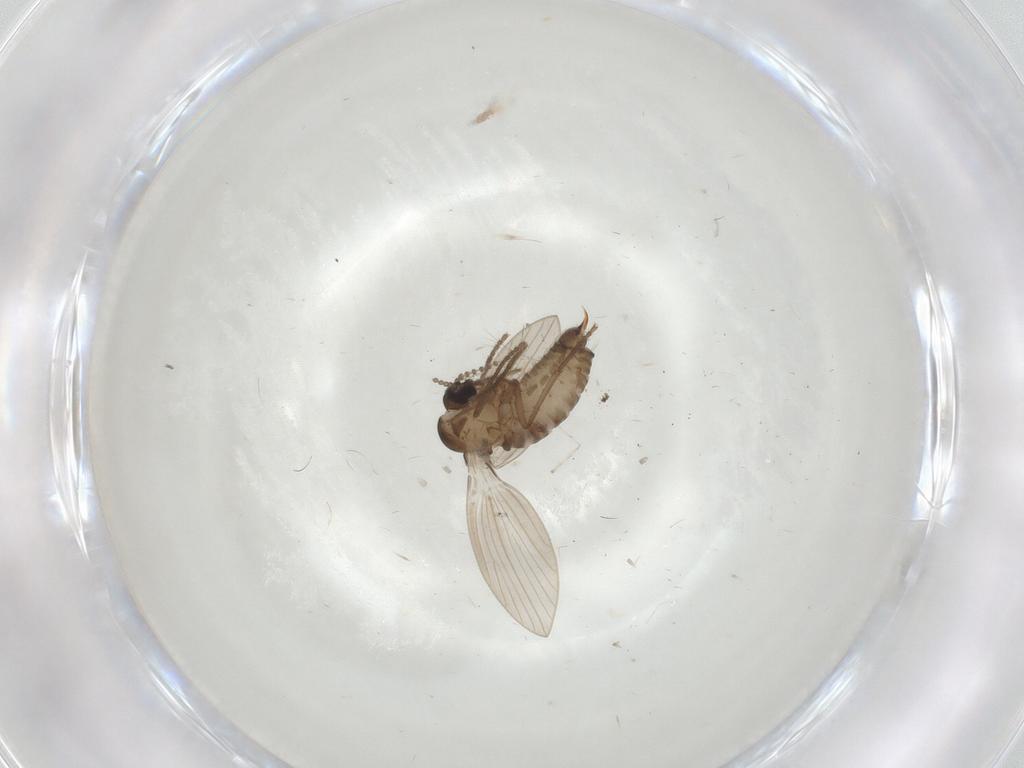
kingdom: Animalia
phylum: Arthropoda
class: Insecta
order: Diptera
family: Psychodidae
